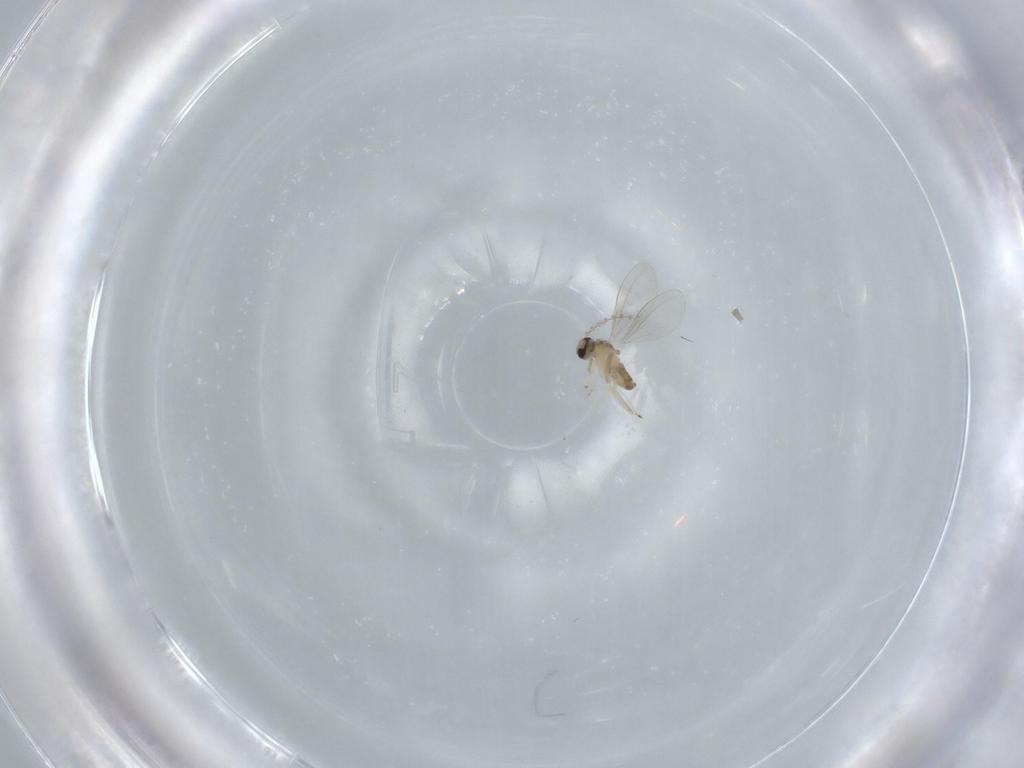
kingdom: Animalia
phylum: Arthropoda
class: Insecta
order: Diptera
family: Cecidomyiidae
